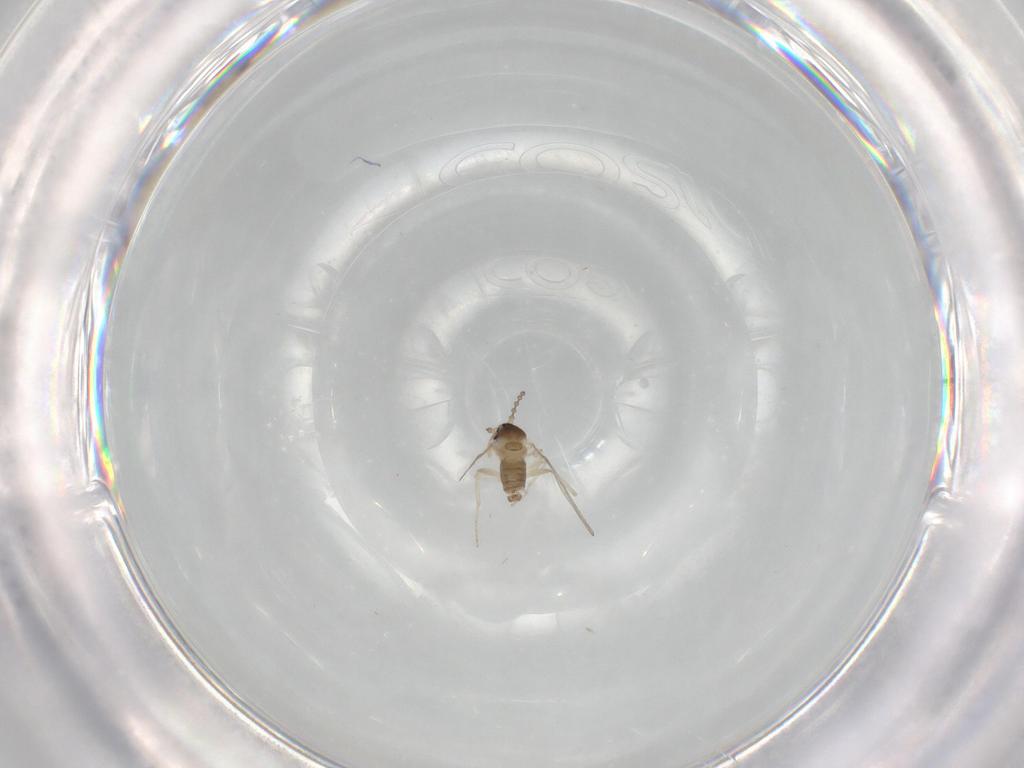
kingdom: Animalia
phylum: Arthropoda
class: Insecta
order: Diptera
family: Cecidomyiidae
